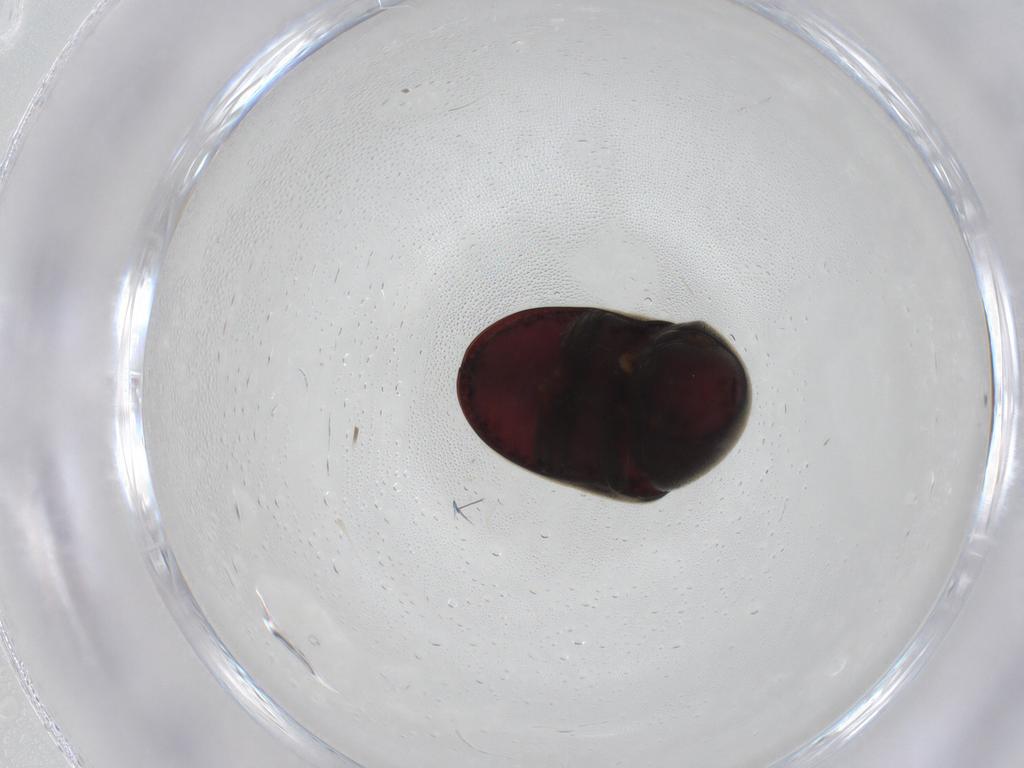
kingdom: Animalia
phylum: Arthropoda
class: Insecta
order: Coleoptera
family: Ptinidae
